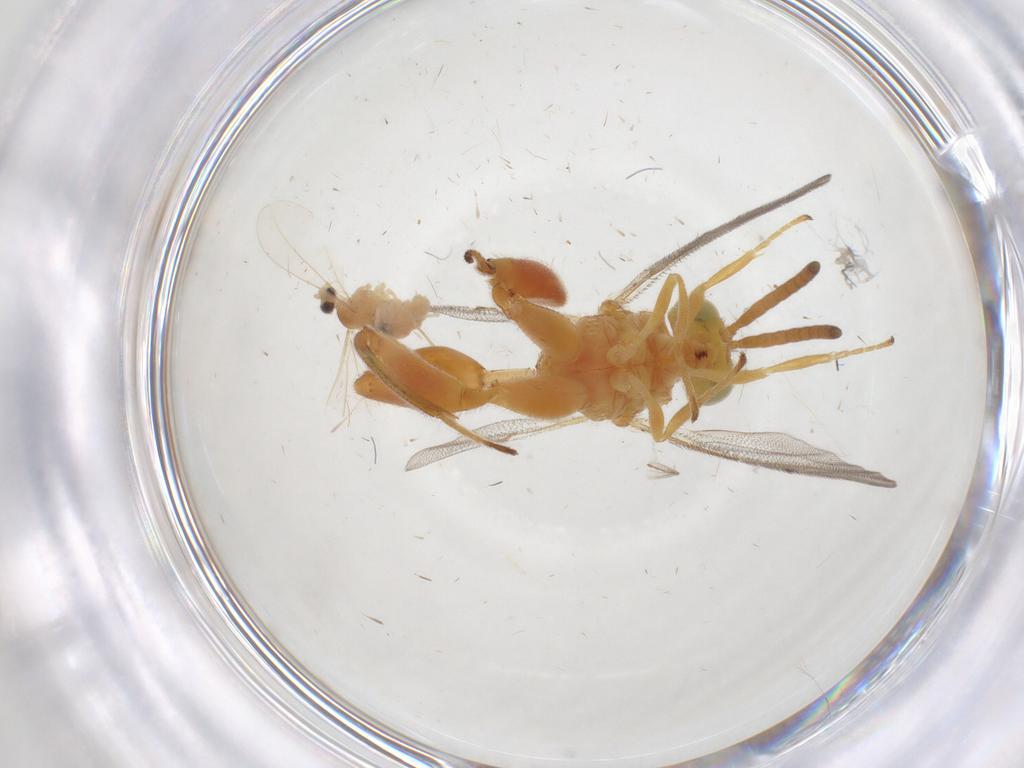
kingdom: Animalia
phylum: Arthropoda
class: Insecta
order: Diptera
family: Cecidomyiidae
